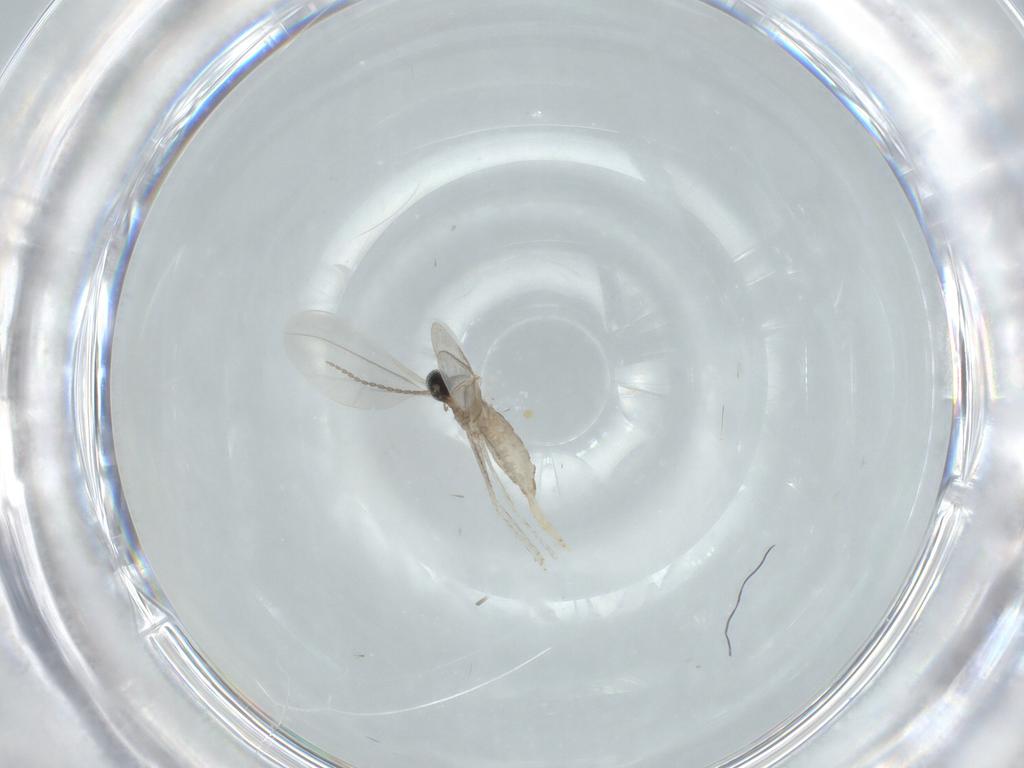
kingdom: Animalia
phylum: Arthropoda
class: Insecta
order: Diptera
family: Cecidomyiidae
